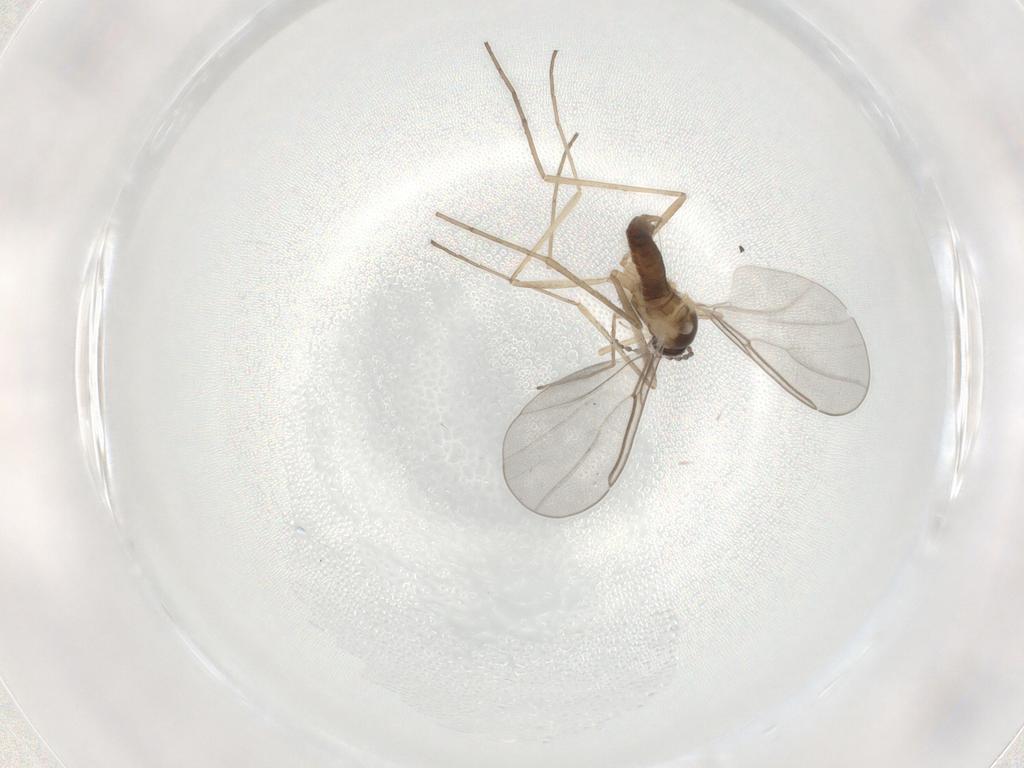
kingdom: Animalia
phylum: Arthropoda
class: Insecta
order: Diptera
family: Cecidomyiidae
